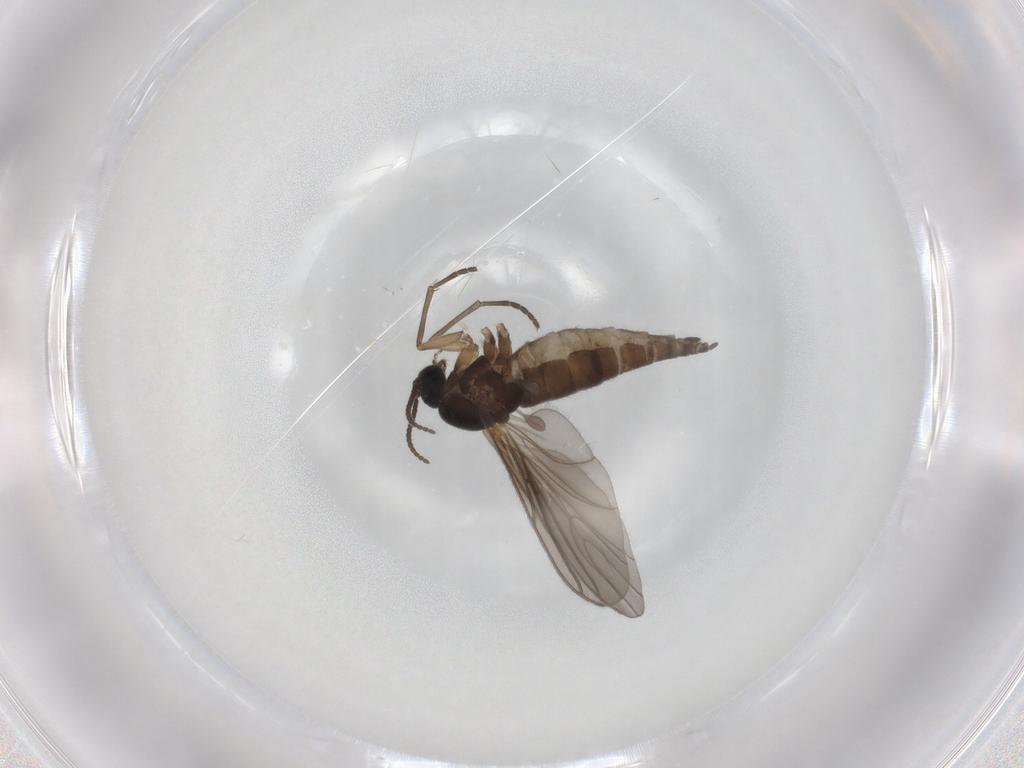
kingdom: Animalia
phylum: Arthropoda
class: Insecta
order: Diptera
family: Sciaridae
